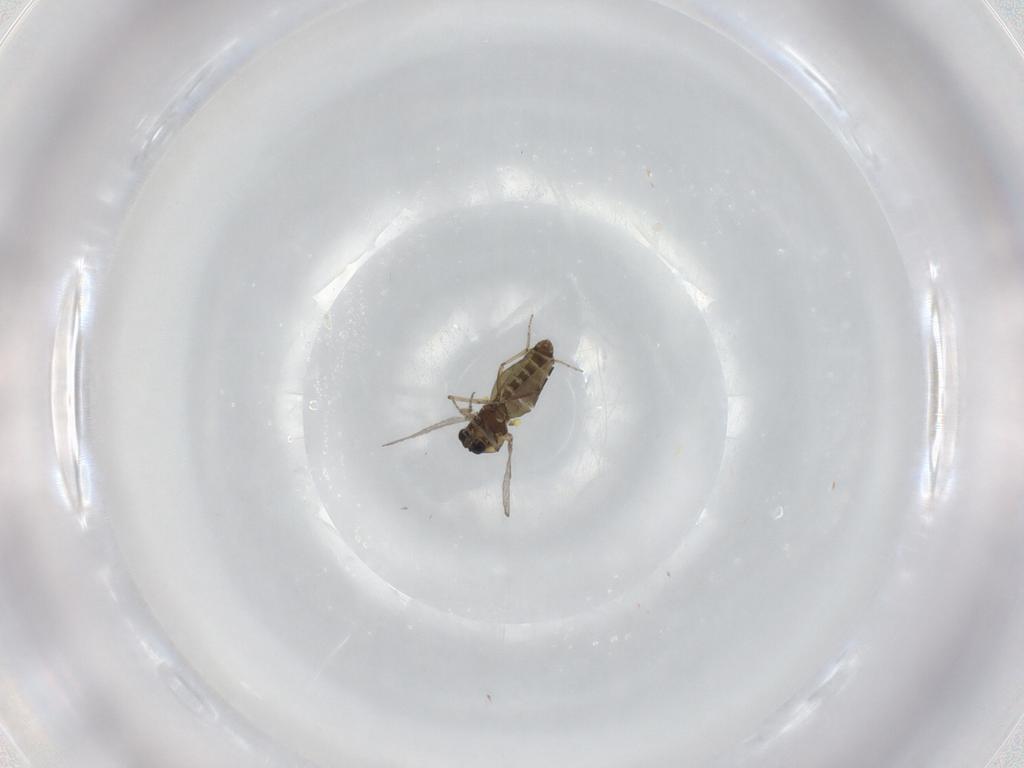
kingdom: Animalia
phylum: Arthropoda
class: Insecta
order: Diptera
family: Ceratopogonidae
